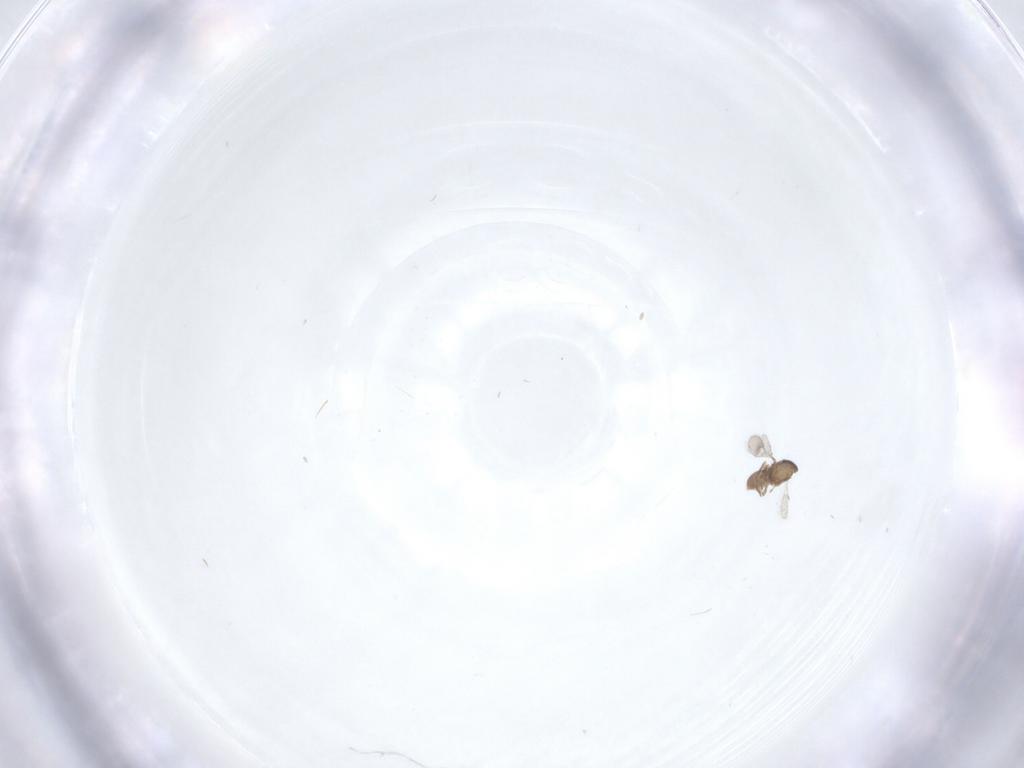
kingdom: Animalia
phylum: Arthropoda
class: Insecta
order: Hymenoptera
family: Scelionidae
